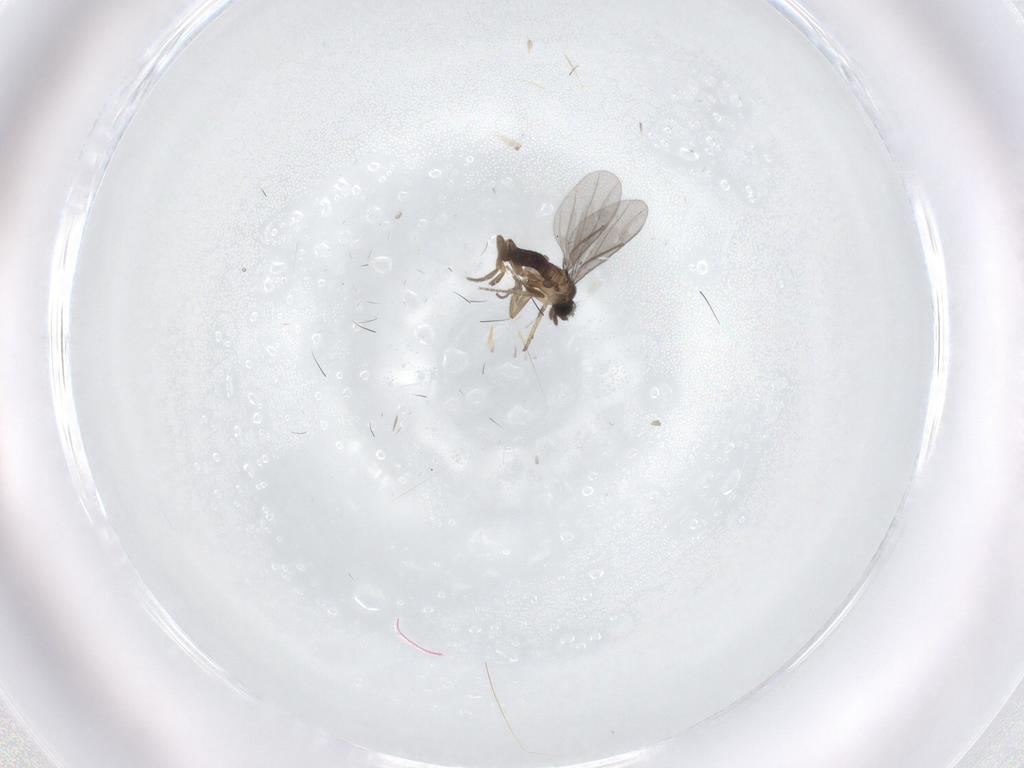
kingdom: Animalia
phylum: Arthropoda
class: Insecta
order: Diptera
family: Cecidomyiidae
